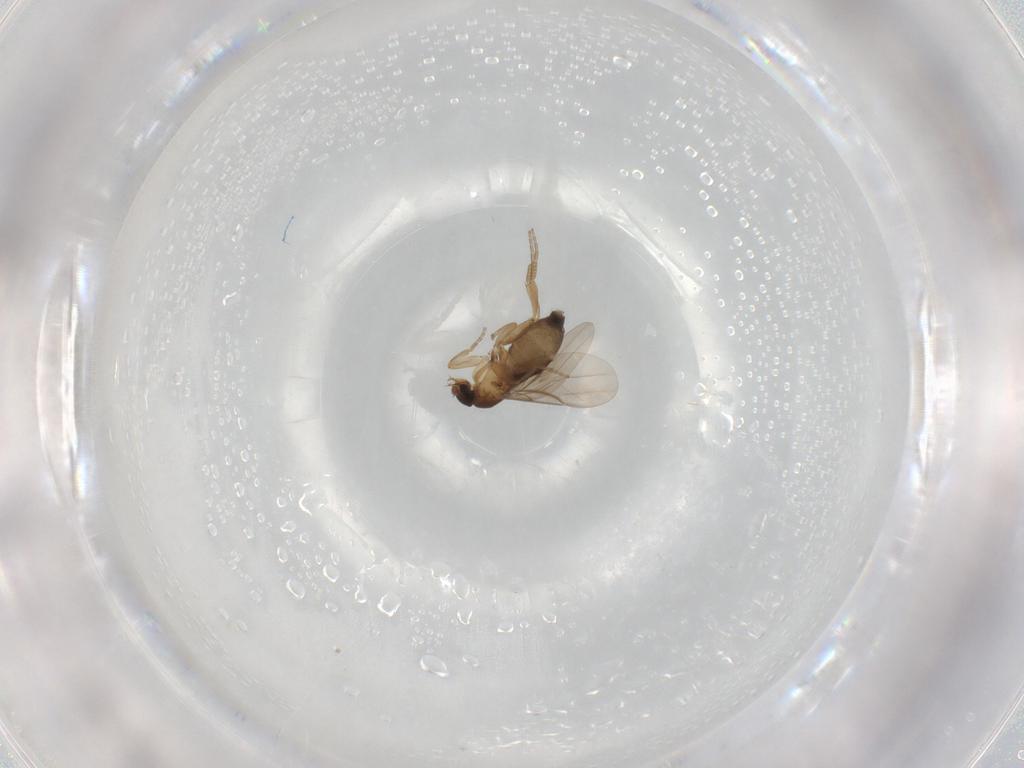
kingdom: Animalia
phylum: Arthropoda
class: Insecta
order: Diptera
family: Phoridae
